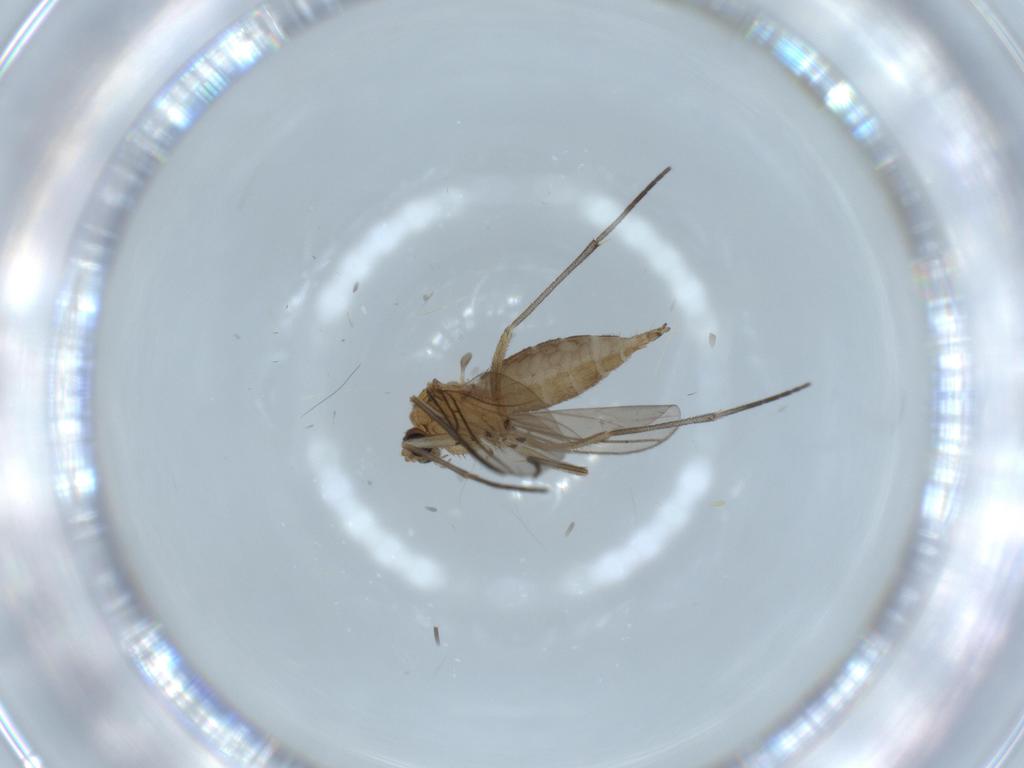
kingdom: Animalia
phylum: Arthropoda
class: Insecta
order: Diptera
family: Sciaridae
